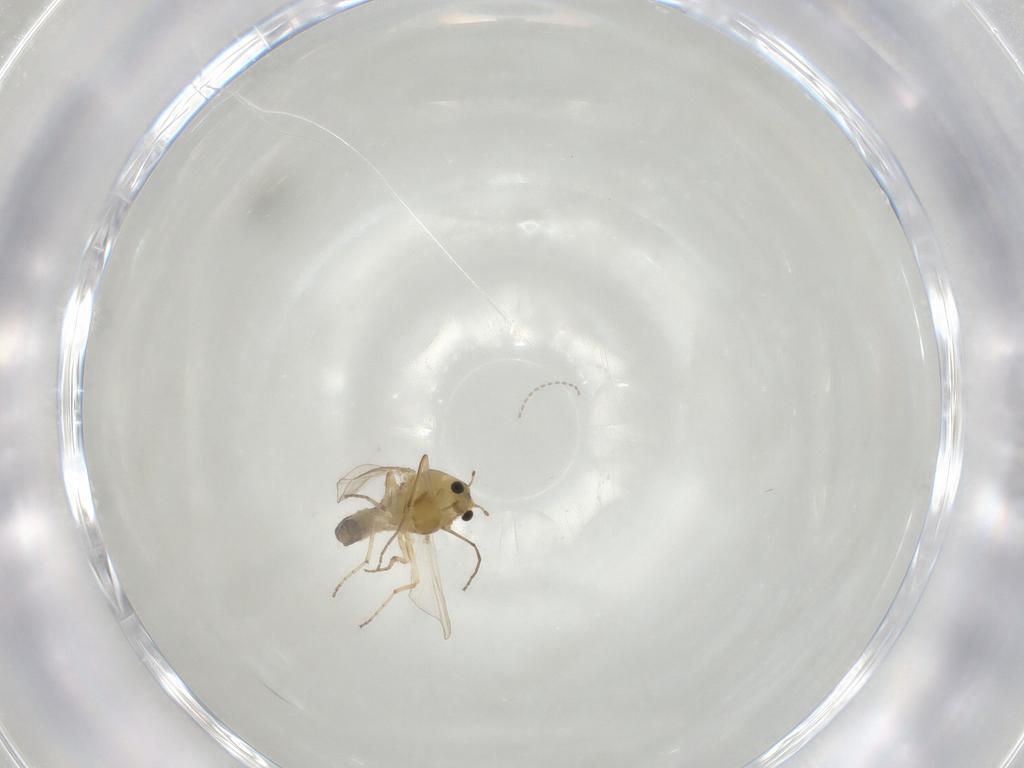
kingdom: Animalia
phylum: Arthropoda
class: Insecta
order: Diptera
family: Chironomidae
